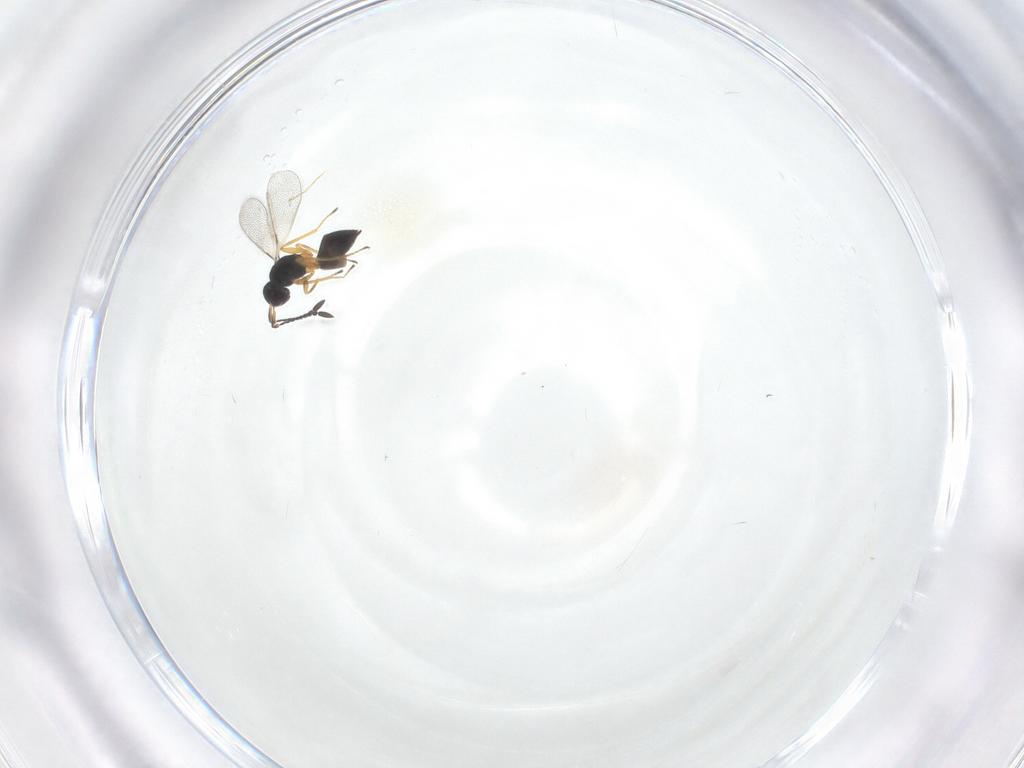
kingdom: Animalia
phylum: Arthropoda
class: Insecta
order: Hymenoptera
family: Mymaridae
